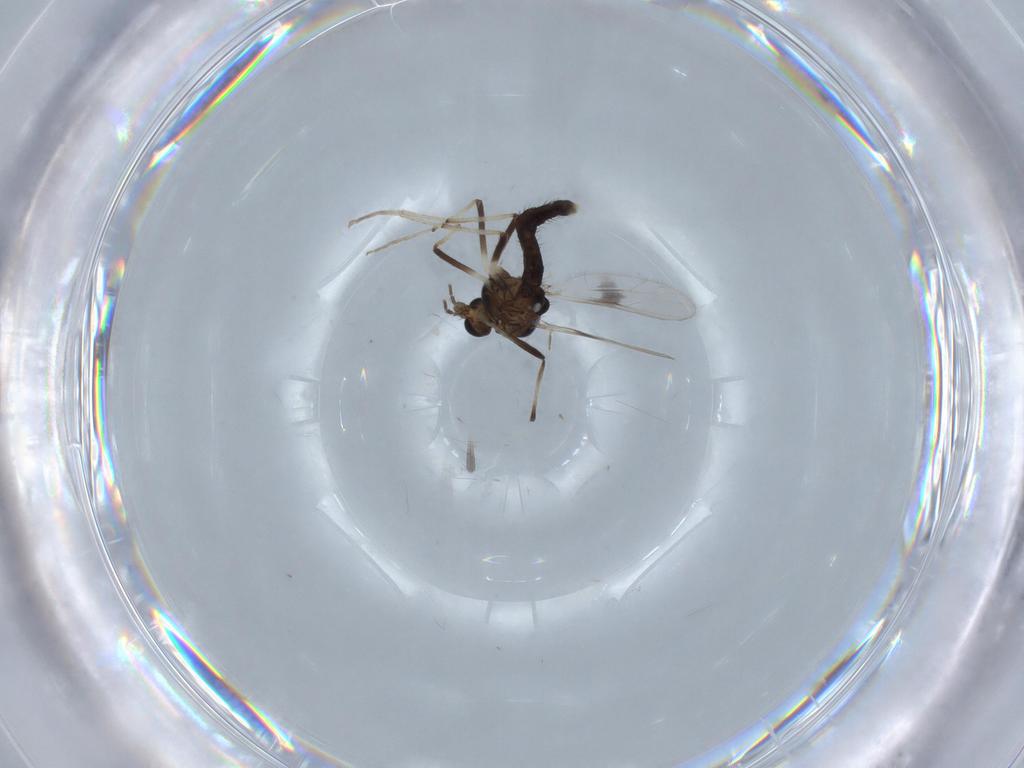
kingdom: Animalia
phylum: Arthropoda
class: Insecta
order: Diptera
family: Chironomidae
